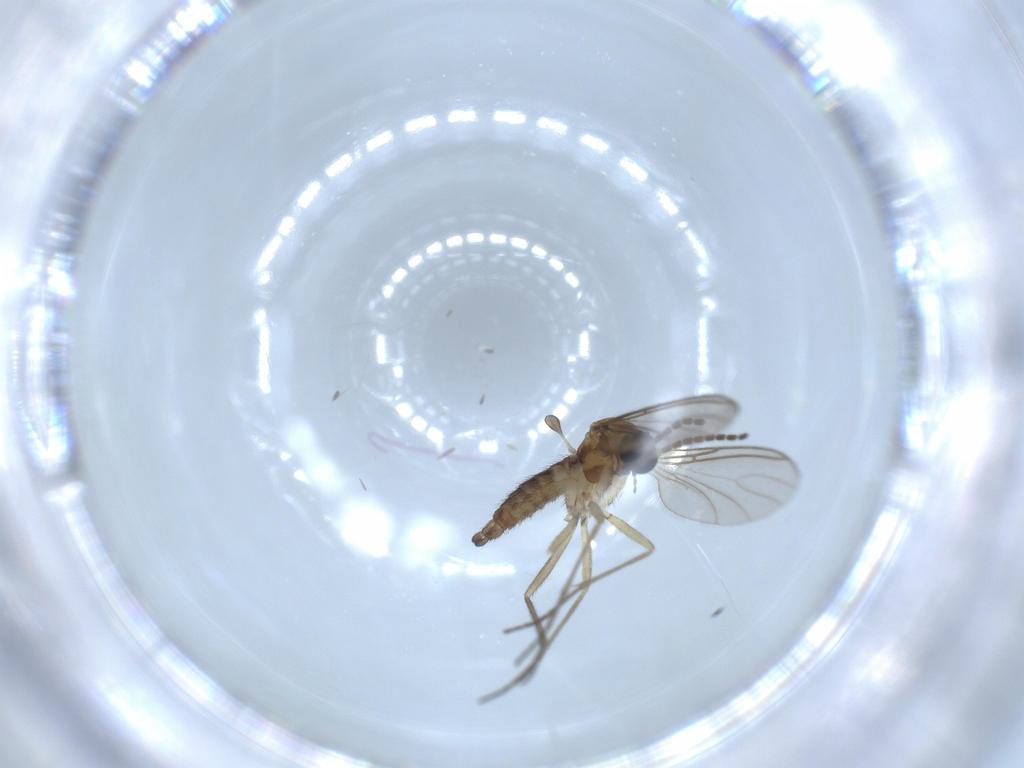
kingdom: Animalia
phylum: Arthropoda
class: Insecta
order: Diptera
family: Sciaridae
